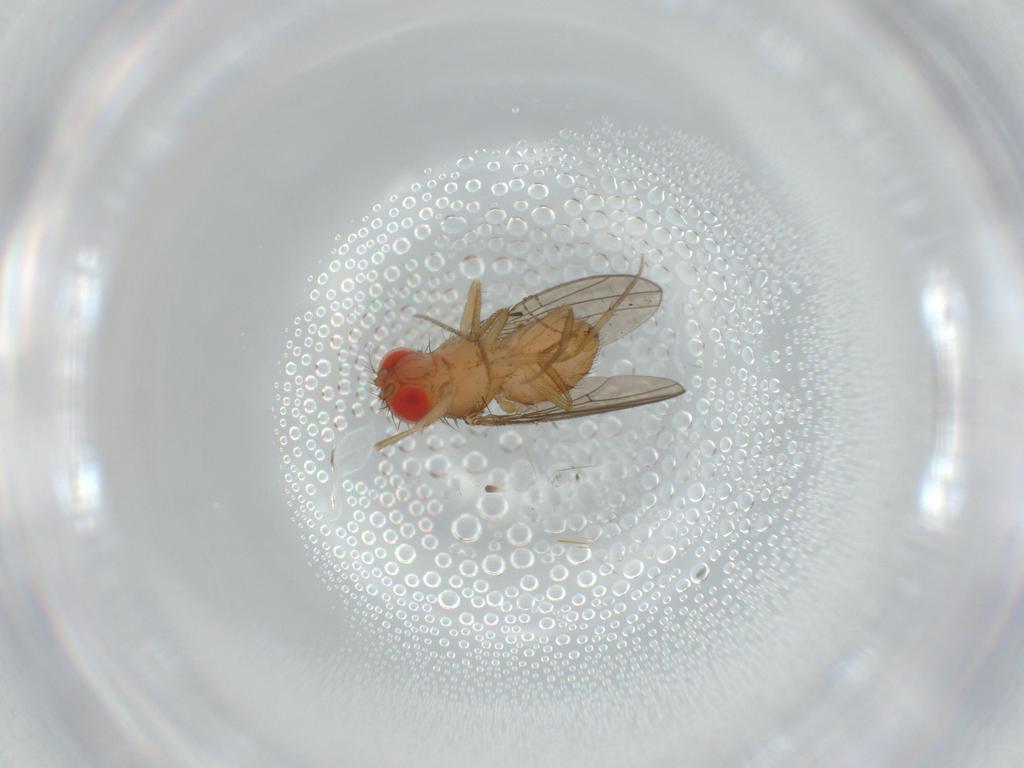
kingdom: Animalia
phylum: Arthropoda
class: Insecta
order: Diptera
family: Drosophilidae
